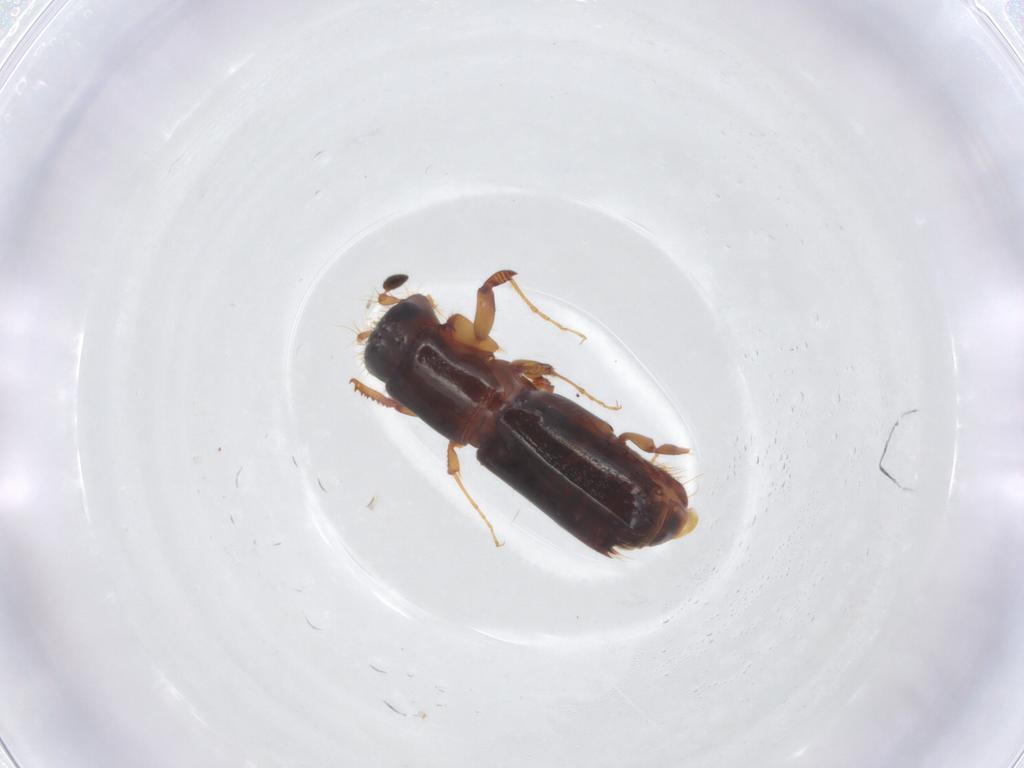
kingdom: Animalia
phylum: Arthropoda
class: Insecta
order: Coleoptera
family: Curculionidae
